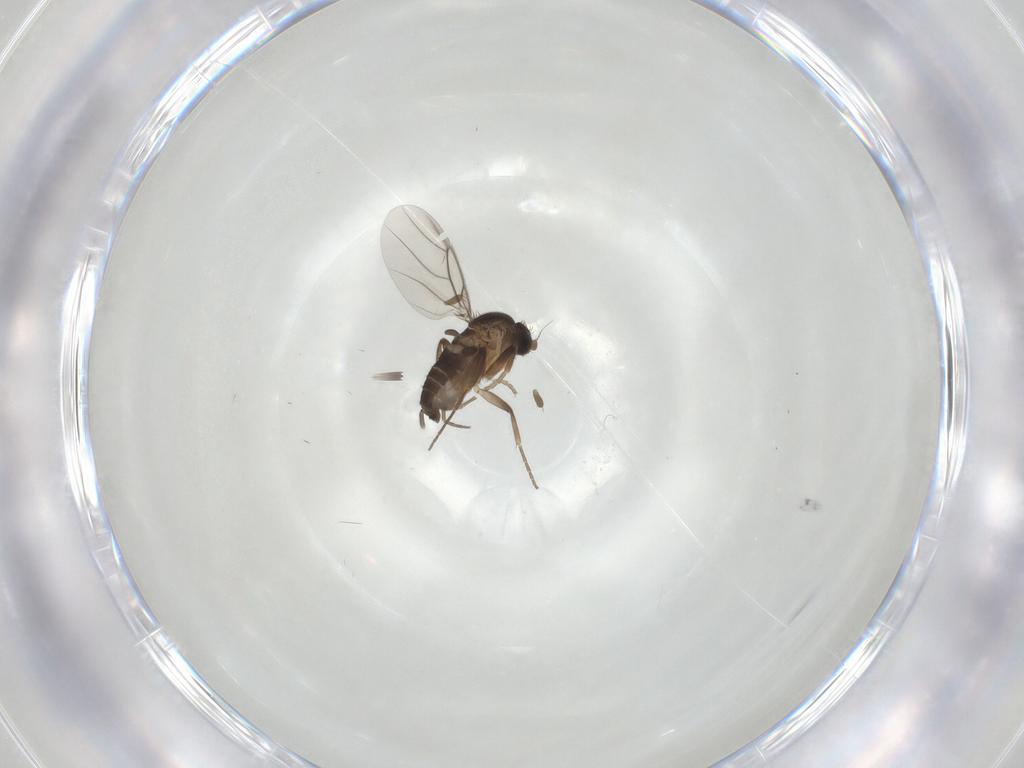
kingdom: Animalia
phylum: Arthropoda
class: Insecta
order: Diptera
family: Phoridae
